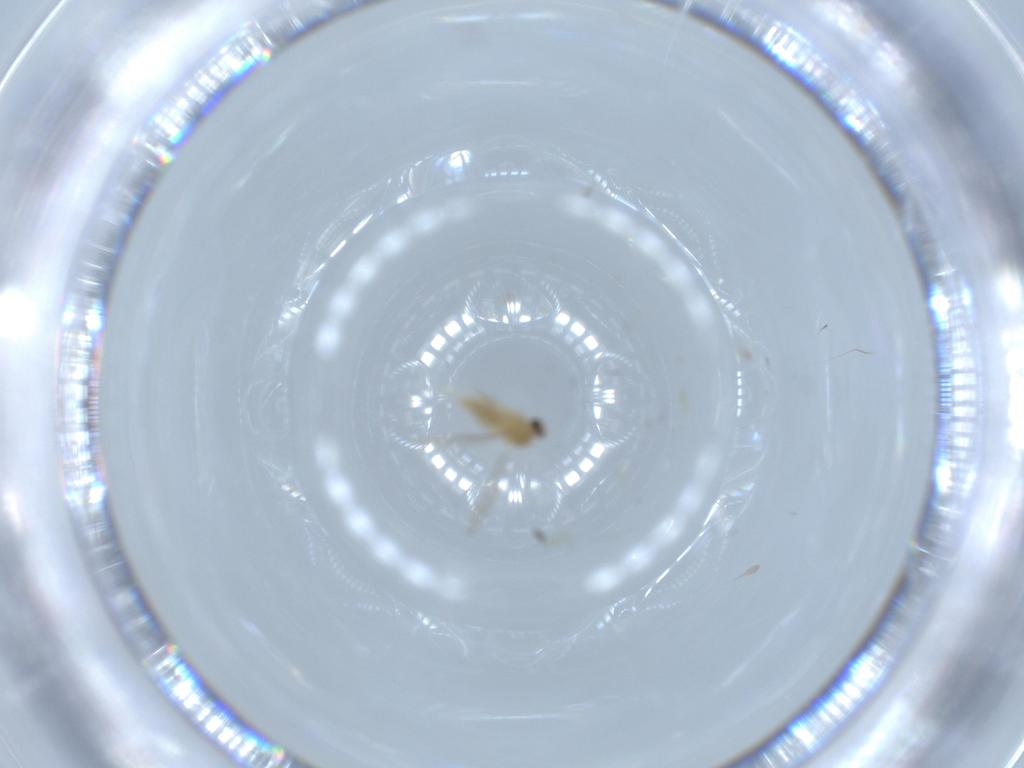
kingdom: Animalia
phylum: Arthropoda
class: Insecta
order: Diptera
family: Cecidomyiidae
